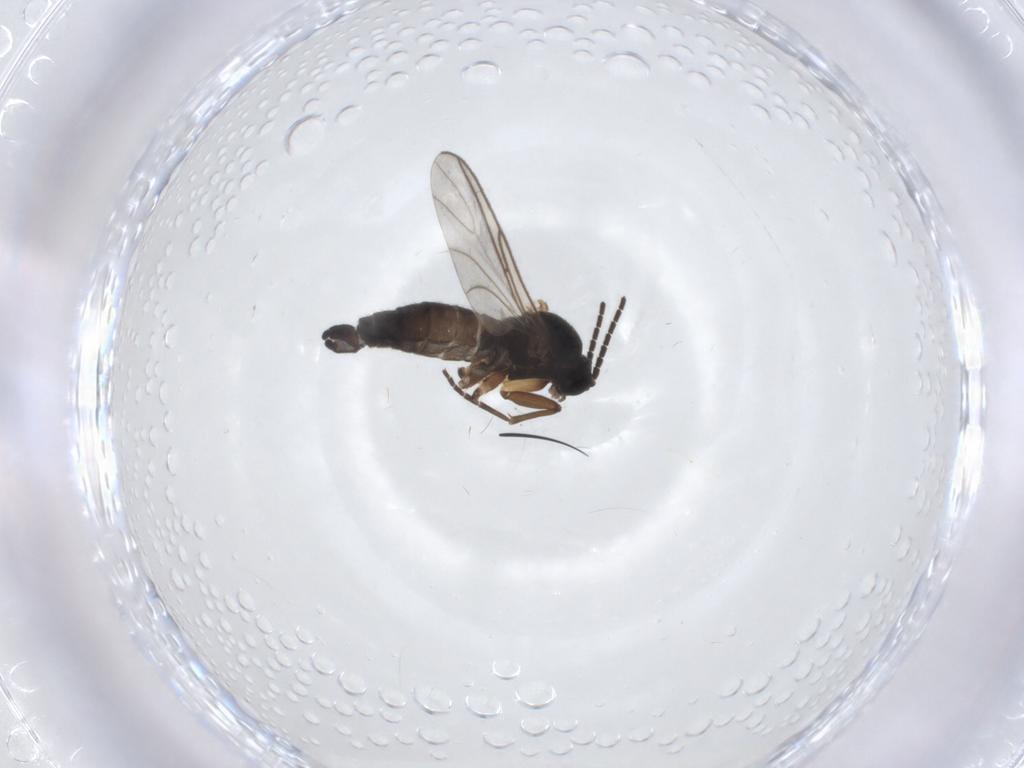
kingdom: Animalia
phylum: Arthropoda
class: Insecta
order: Diptera
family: Sciaridae
